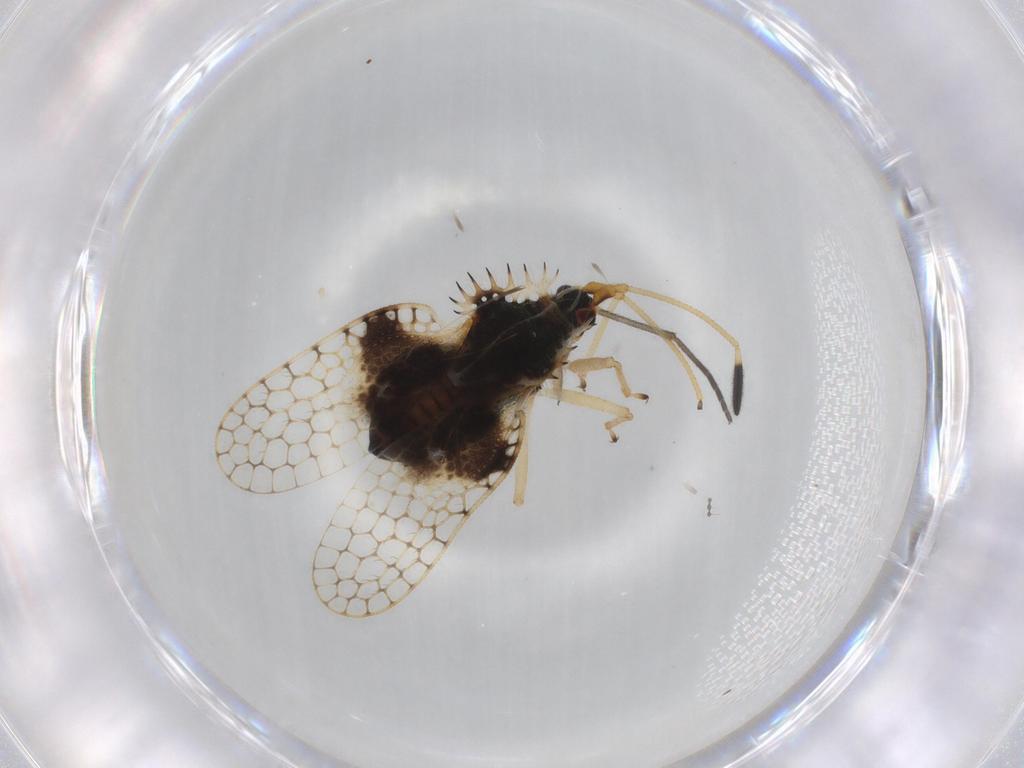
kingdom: Animalia
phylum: Arthropoda
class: Insecta
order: Hemiptera
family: Aleyrodidae
